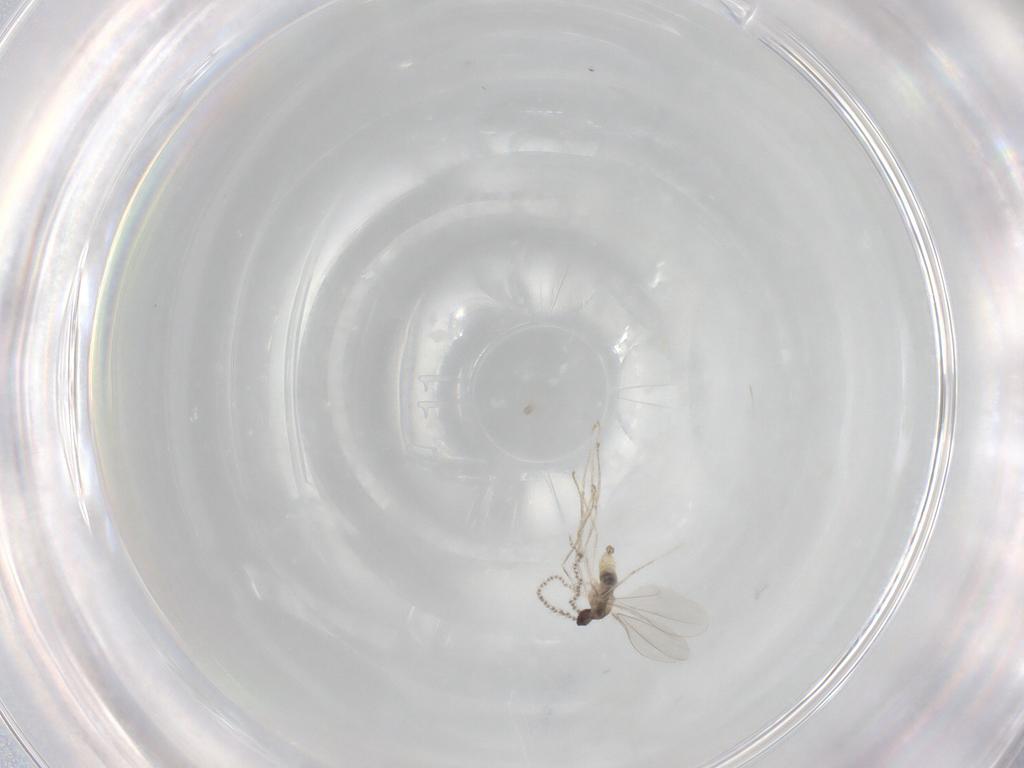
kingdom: Animalia
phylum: Arthropoda
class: Insecta
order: Diptera
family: Cecidomyiidae
